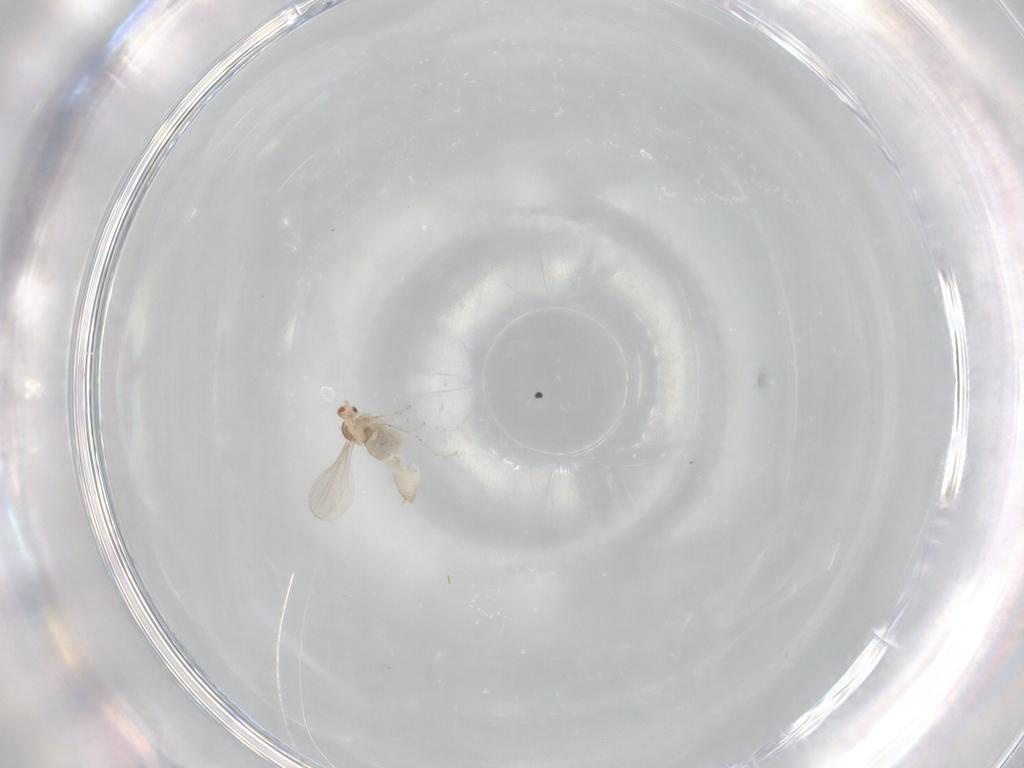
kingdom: Animalia
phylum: Arthropoda
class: Insecta
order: Diptera
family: Cecidomyiidae
